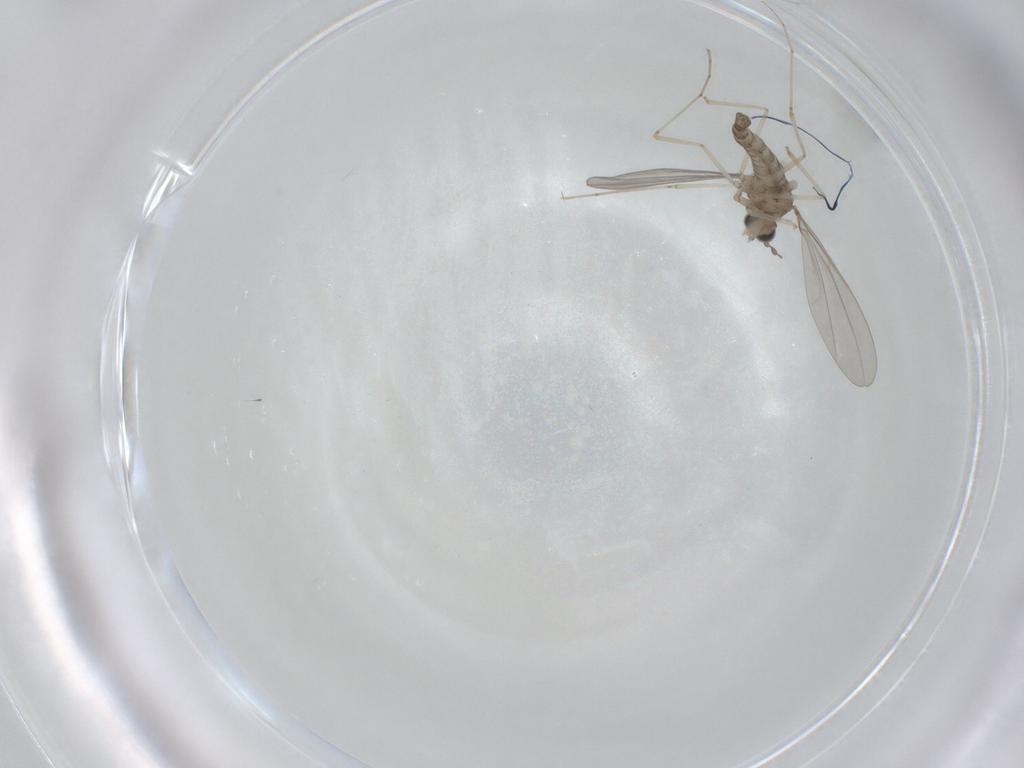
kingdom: Animalia
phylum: Arthropoda
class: Insecta
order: Diptera
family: Cecidomyiidae
